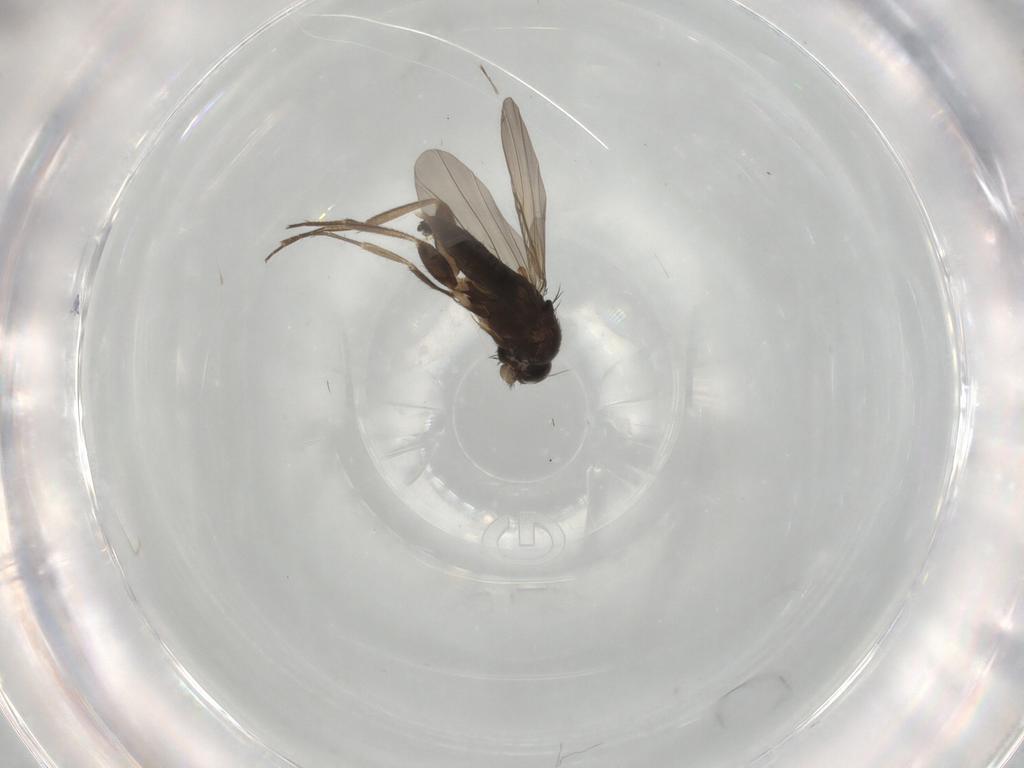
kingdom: Animalia
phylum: Arthropoda
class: Insecta
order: Diptera
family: Phoridae
